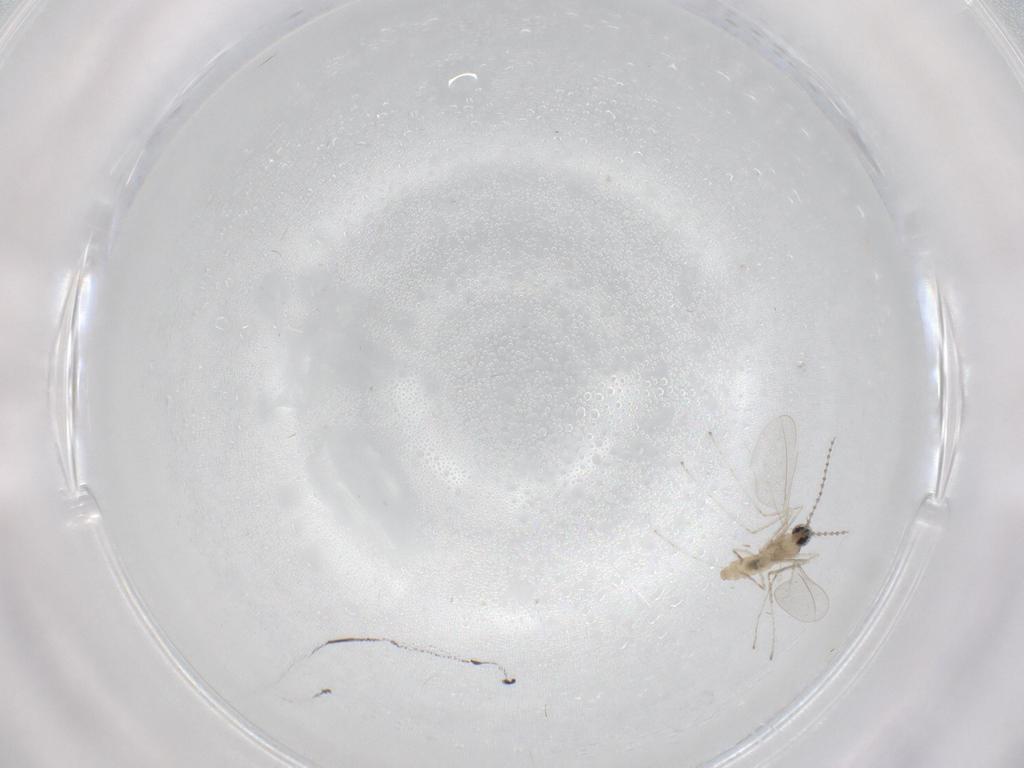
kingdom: Animalia
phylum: Arthropoda
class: Insecta
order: Diptera
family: Cecidomyiidae
